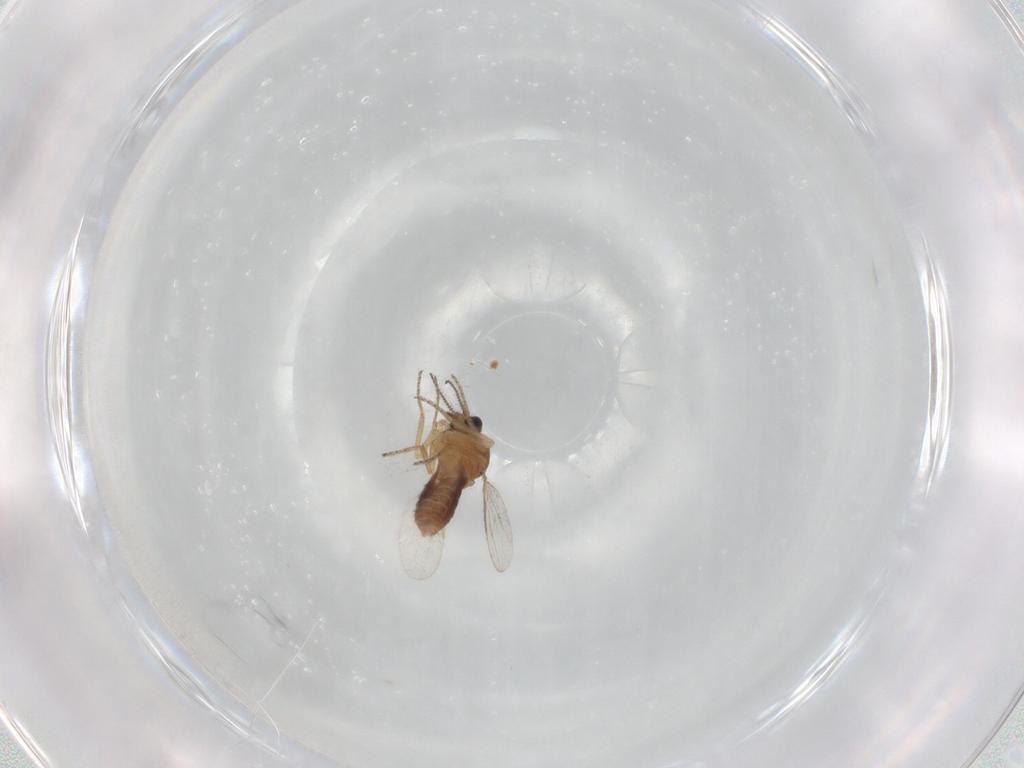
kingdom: Animalia
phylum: Arthropoda
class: Insecta
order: Diptera
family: Ceratopogonidae
